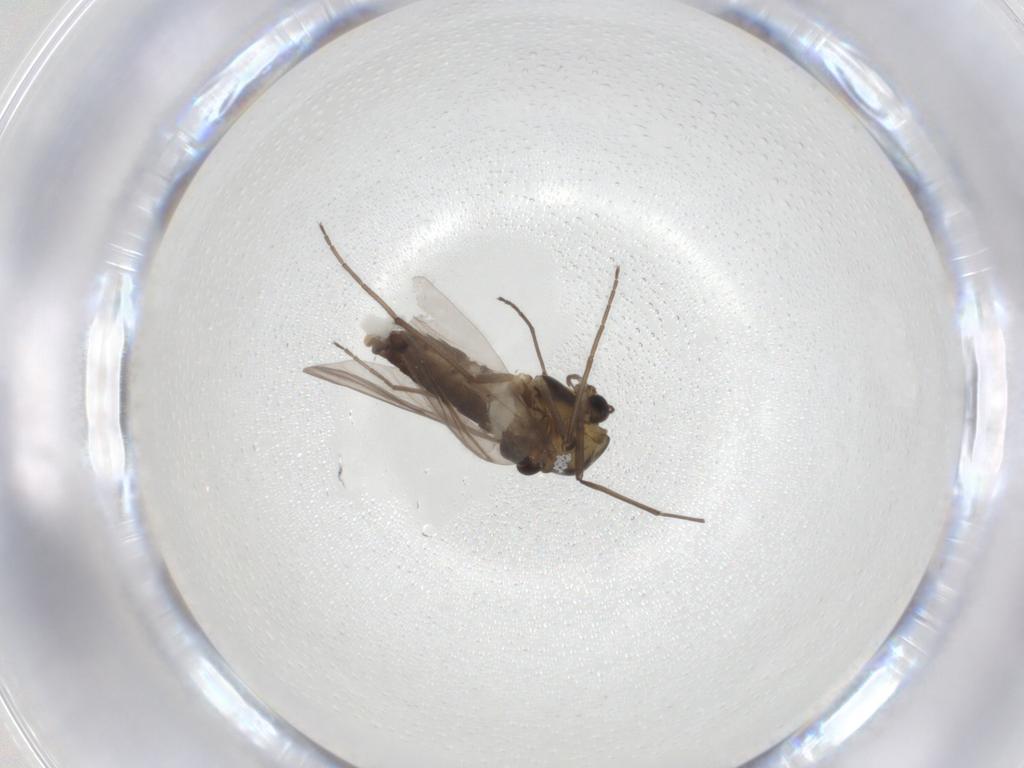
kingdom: Animalia
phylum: Arthropoda
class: Insecta
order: Diptera
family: Chironomidae
